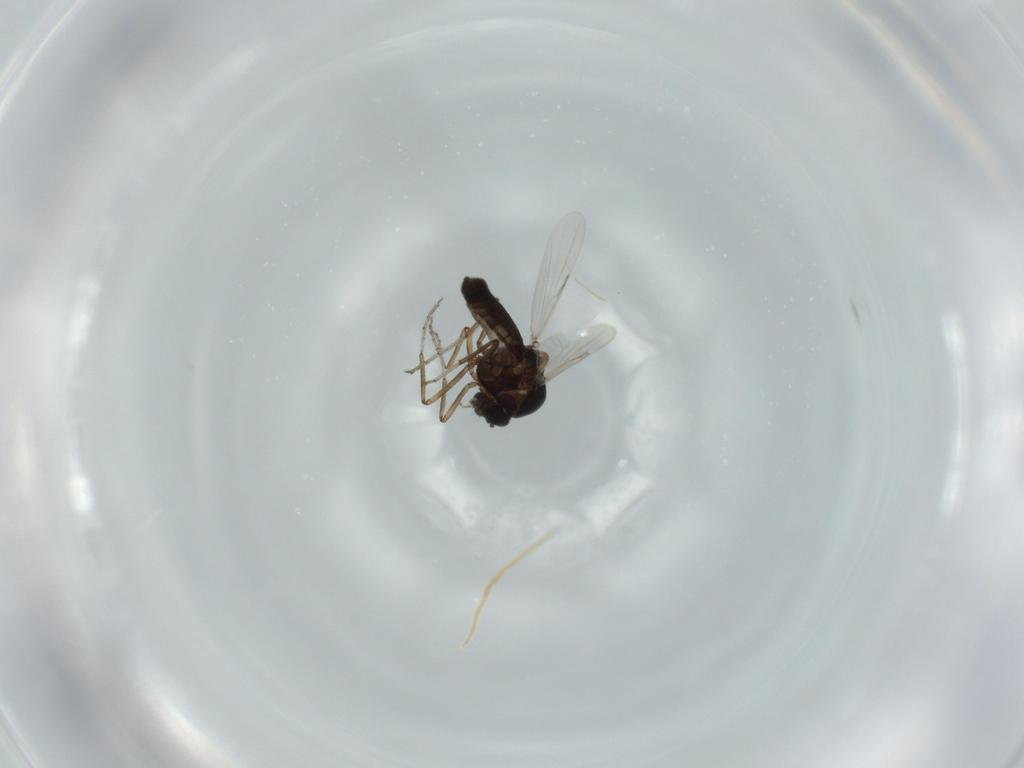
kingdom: Animalia
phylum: Arthropoda
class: Insecta
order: Diptera
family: Ceratopogonidae
